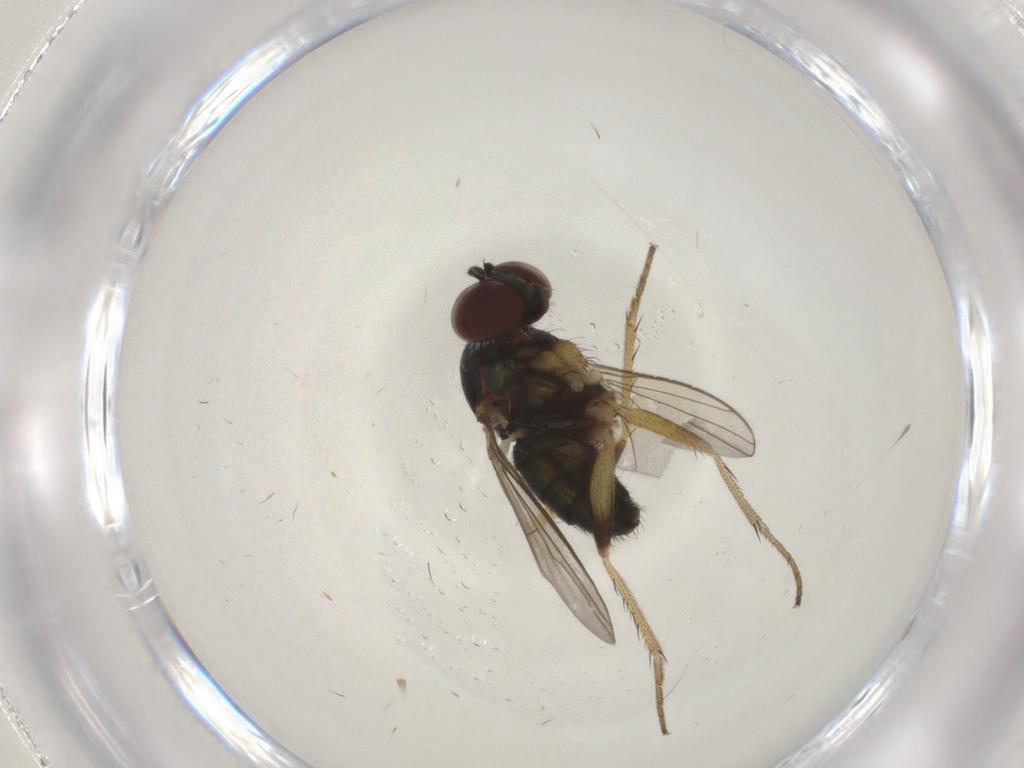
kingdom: Animalia
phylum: Arthropoda
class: Insecta
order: Diptera
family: Dolichopodidae
